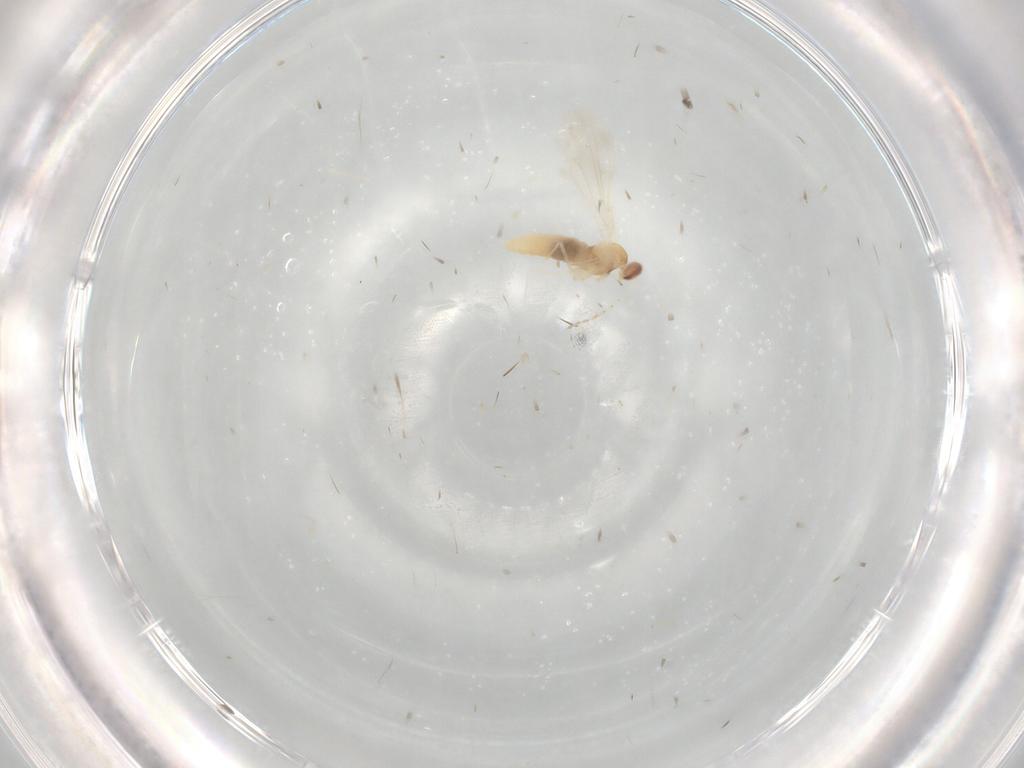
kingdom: Animalia
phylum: Arthropoda
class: Insecta
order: Diptera
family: Cecidomyiidae
